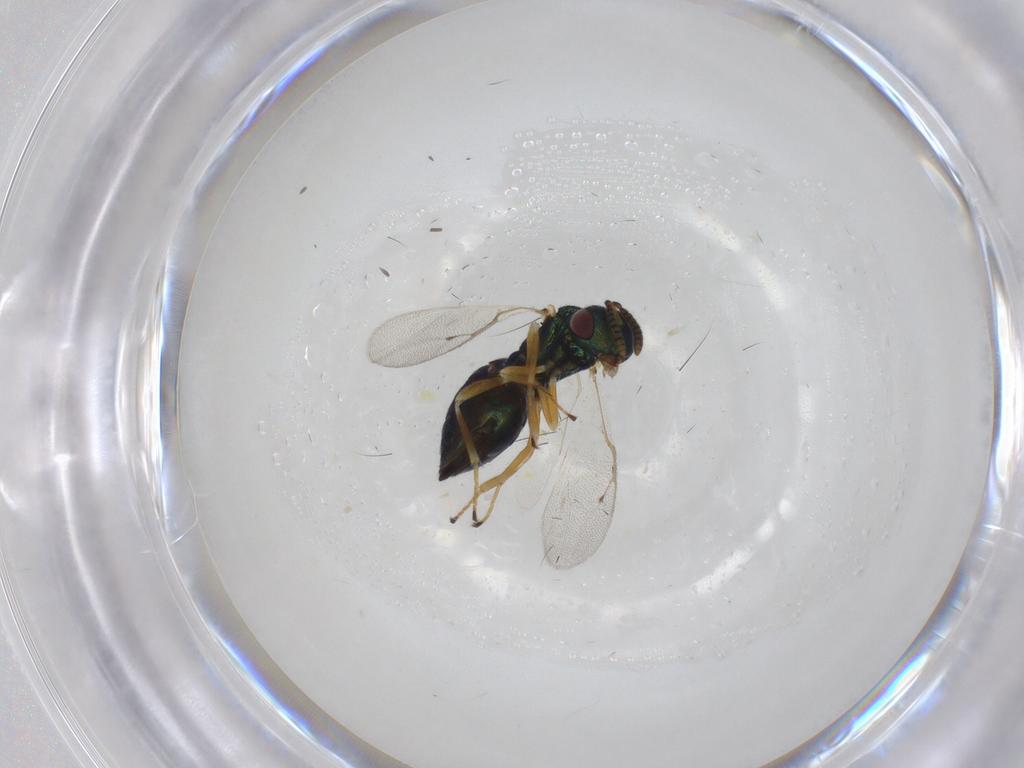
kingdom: Animalia
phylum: Arthropoda
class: Insecta
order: Hymenoptera
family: Pteromalidae
